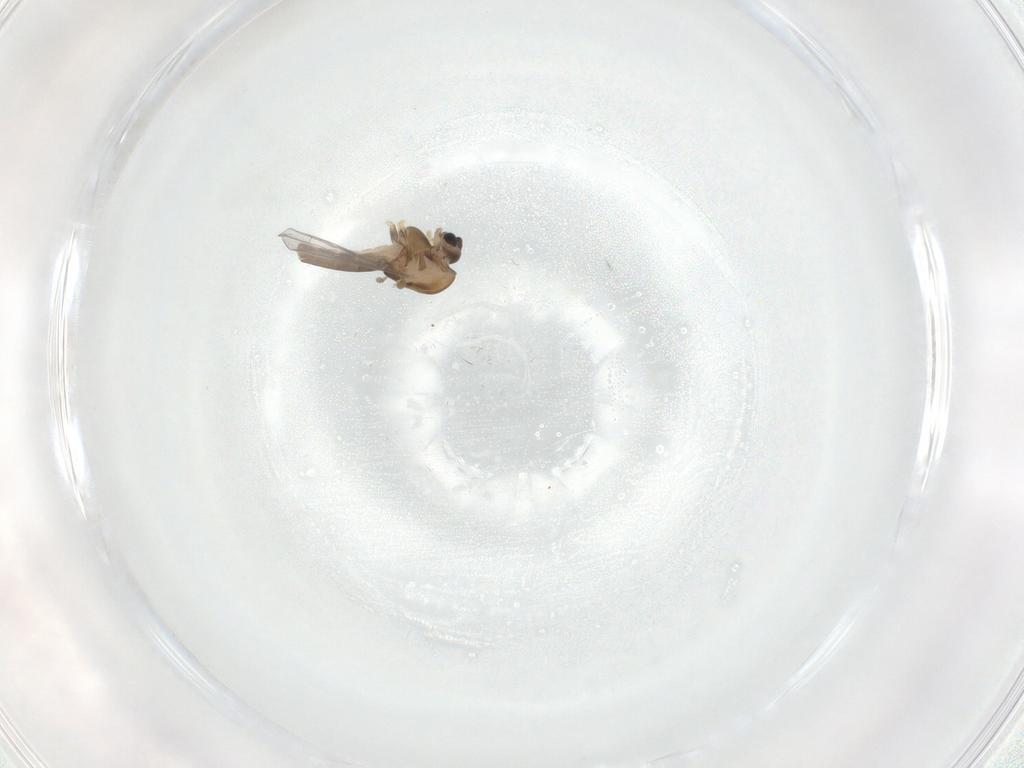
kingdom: Animalia
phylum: Arthropoda
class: Insecta
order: Diptera
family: Chironomidae
